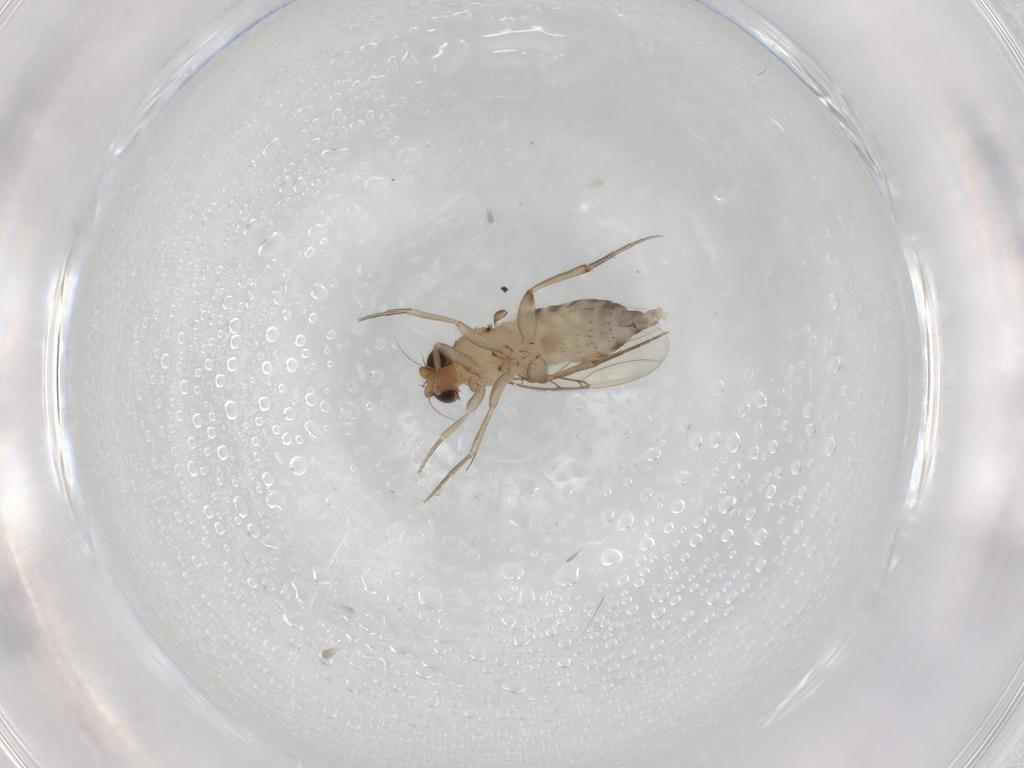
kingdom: Animalia
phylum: Arthropoda
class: Insecta
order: Diptera
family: Phoridae
